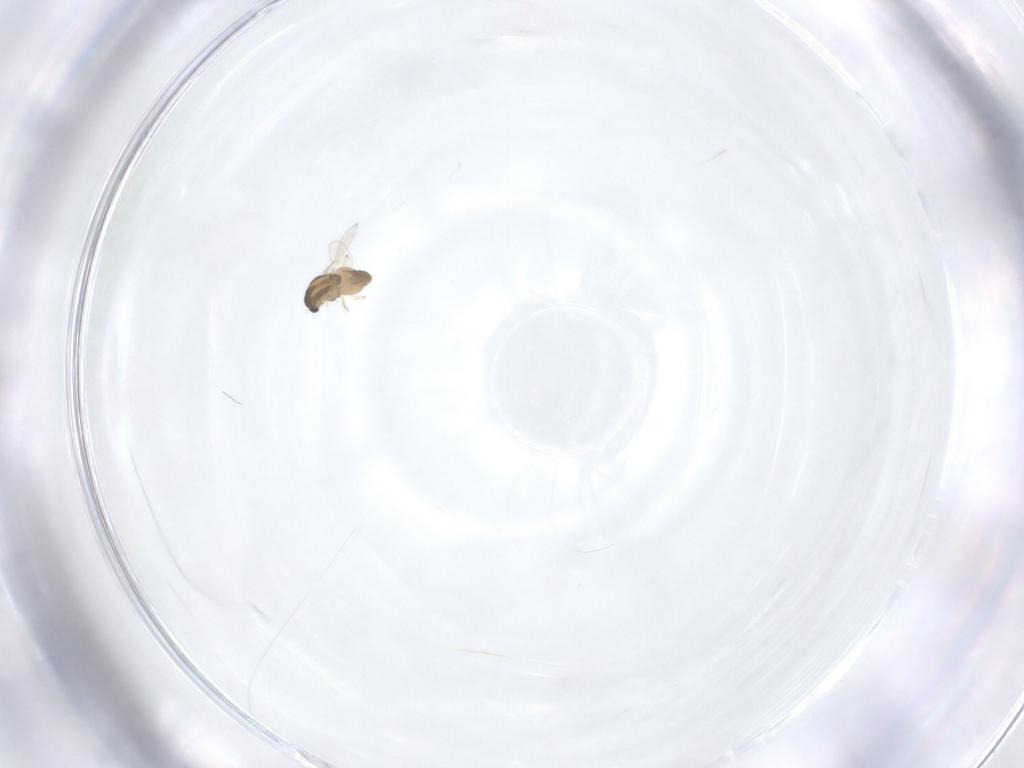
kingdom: Animalia
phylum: Arthropoda
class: Insecta
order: Diptera
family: Chironomidae
